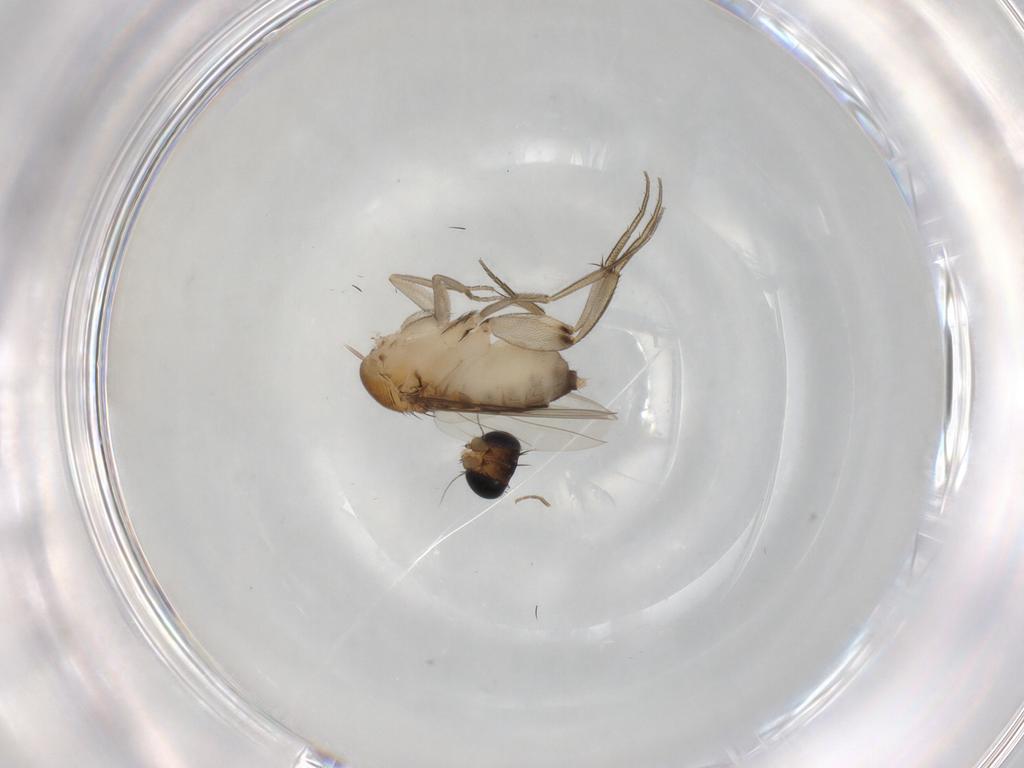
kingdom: Animalia
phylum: Arthropoda
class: Insecta
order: Diptera
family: Phoridae
